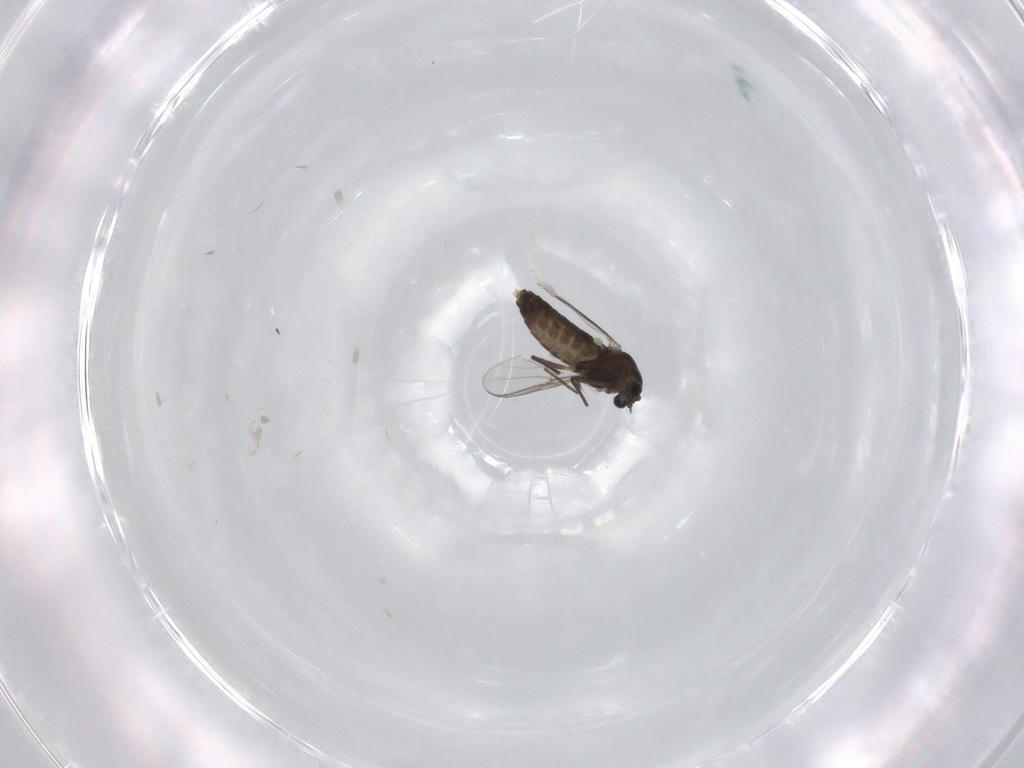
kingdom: Animalia
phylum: Arthropoda
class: Insecta
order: Diptera
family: Chironomidae
